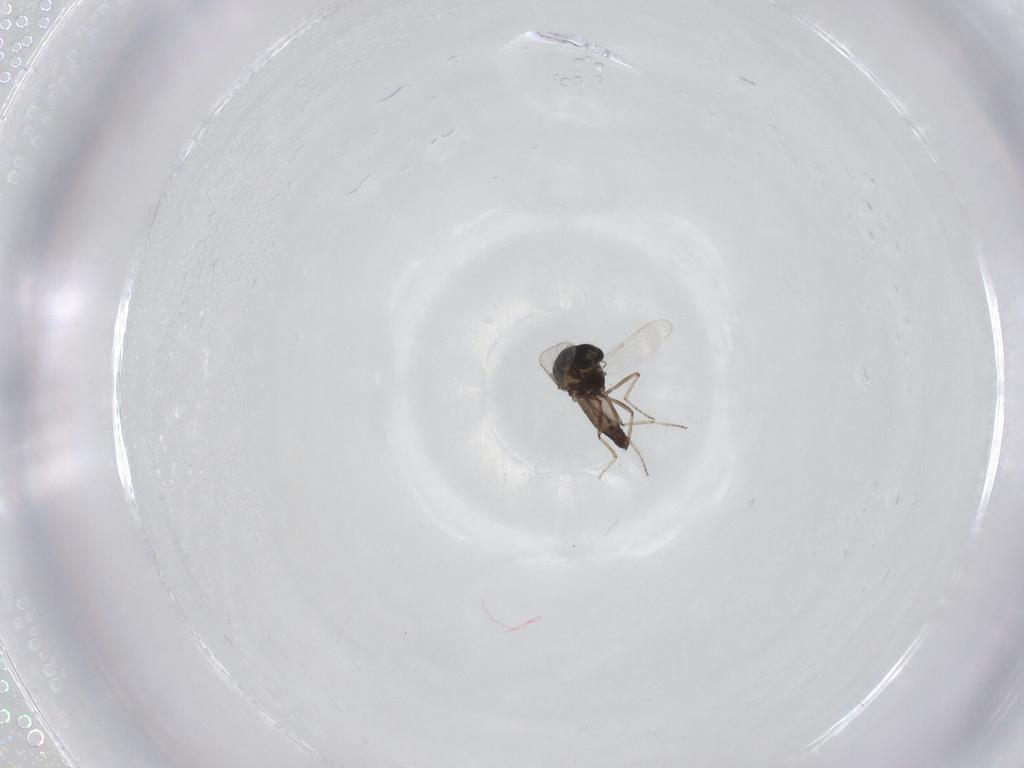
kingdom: Animalia
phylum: Arthropoda
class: Insecta
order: Diptera
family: Ceratopogonidae
